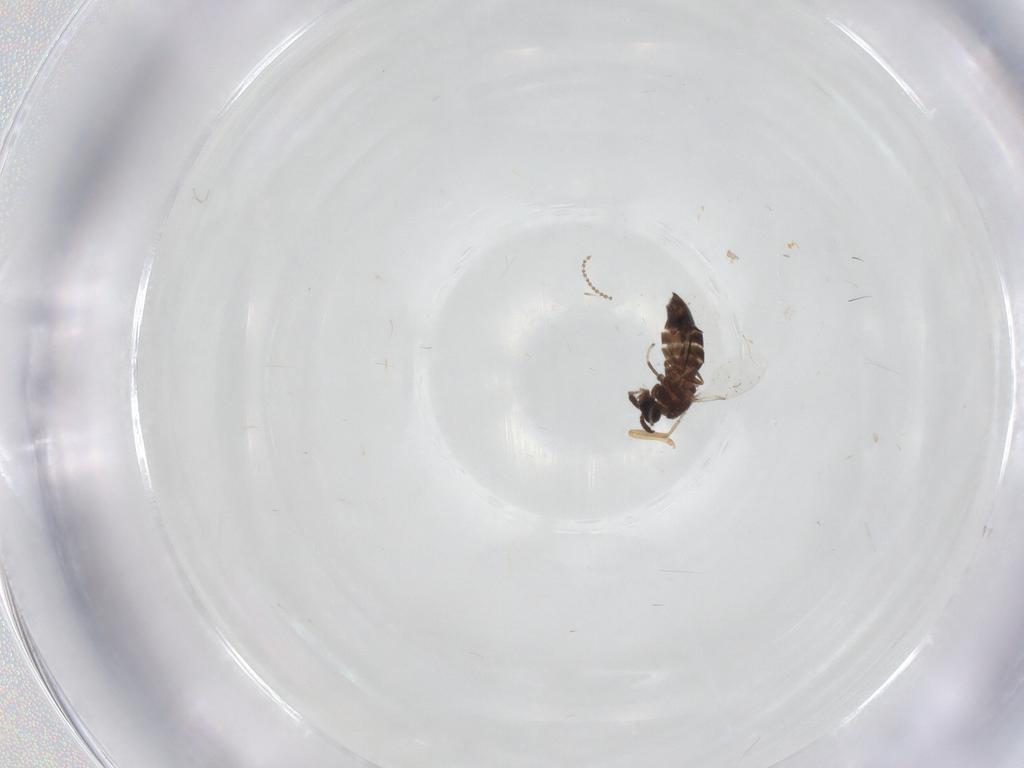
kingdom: Animalia
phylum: Arthropoda
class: Insecta
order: Diptera
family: Scatopsidae
